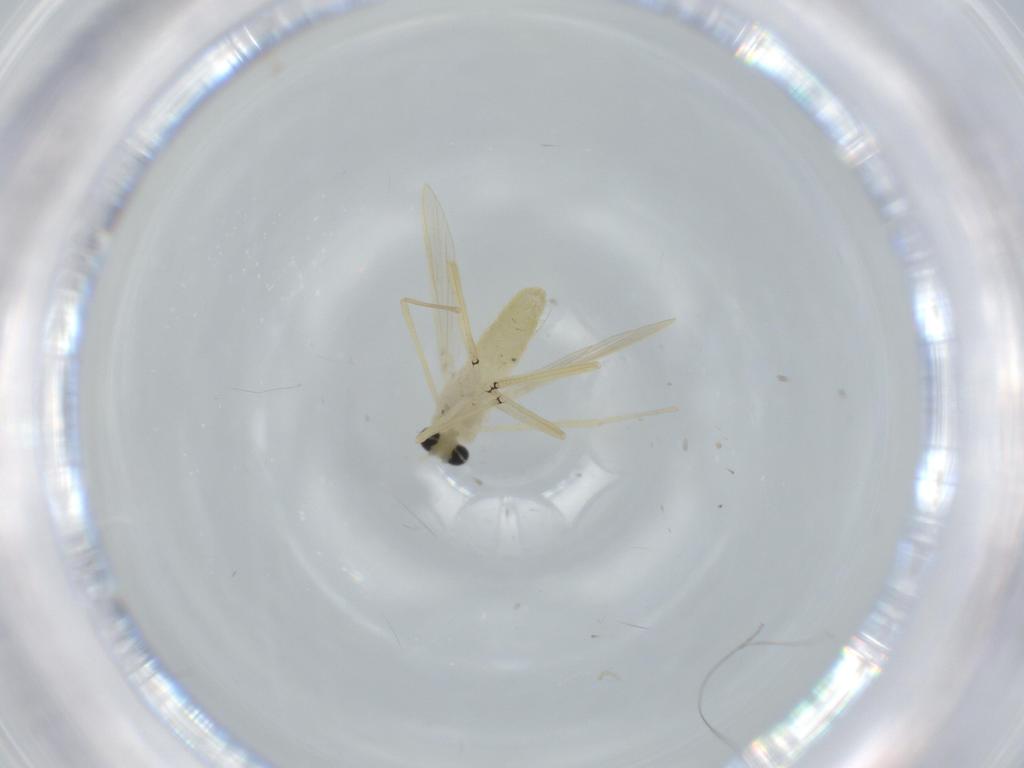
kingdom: Animalia
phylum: Arthropoda
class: Insecta
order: Diptera
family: Cecidomyiidae
